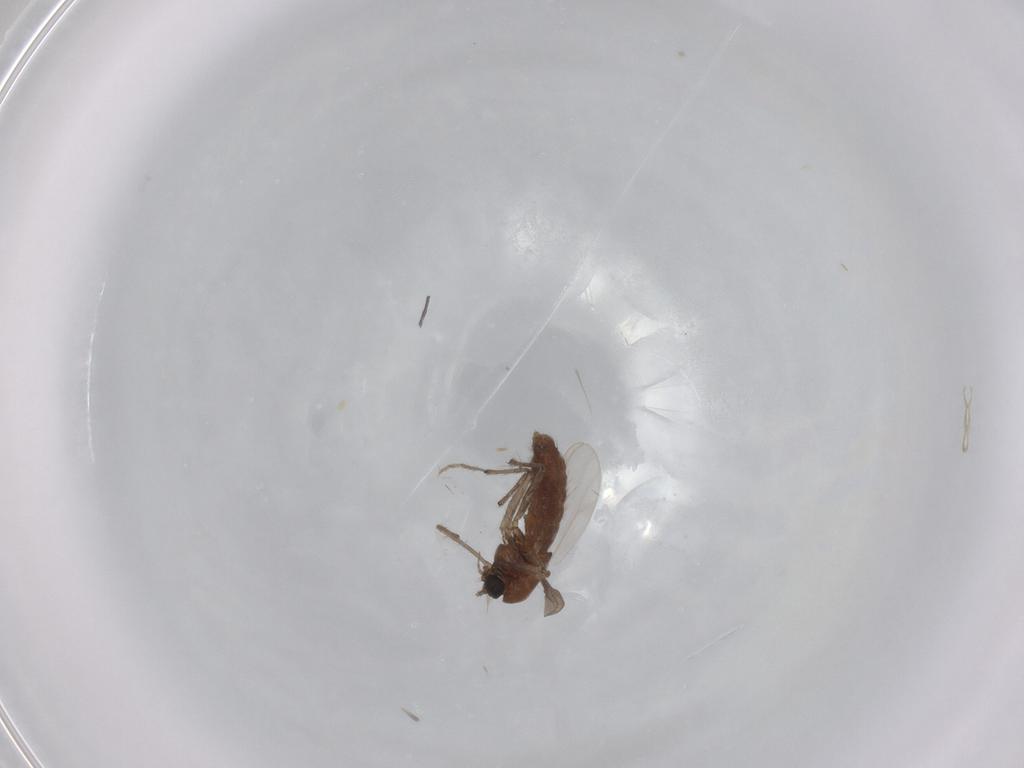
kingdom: Animalia
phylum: Arthropoda
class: Insecta
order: Diptera
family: Chironomidae
